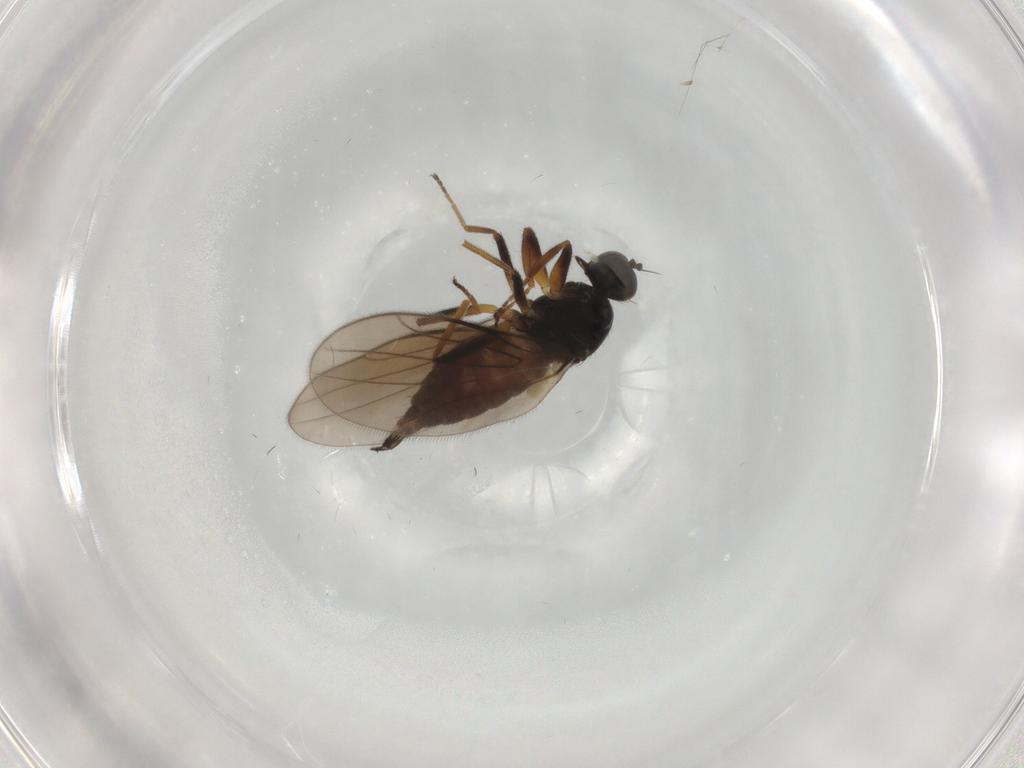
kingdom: Animalia
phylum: Arthropoda
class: Insecta
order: Diptera
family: Hybotidae
